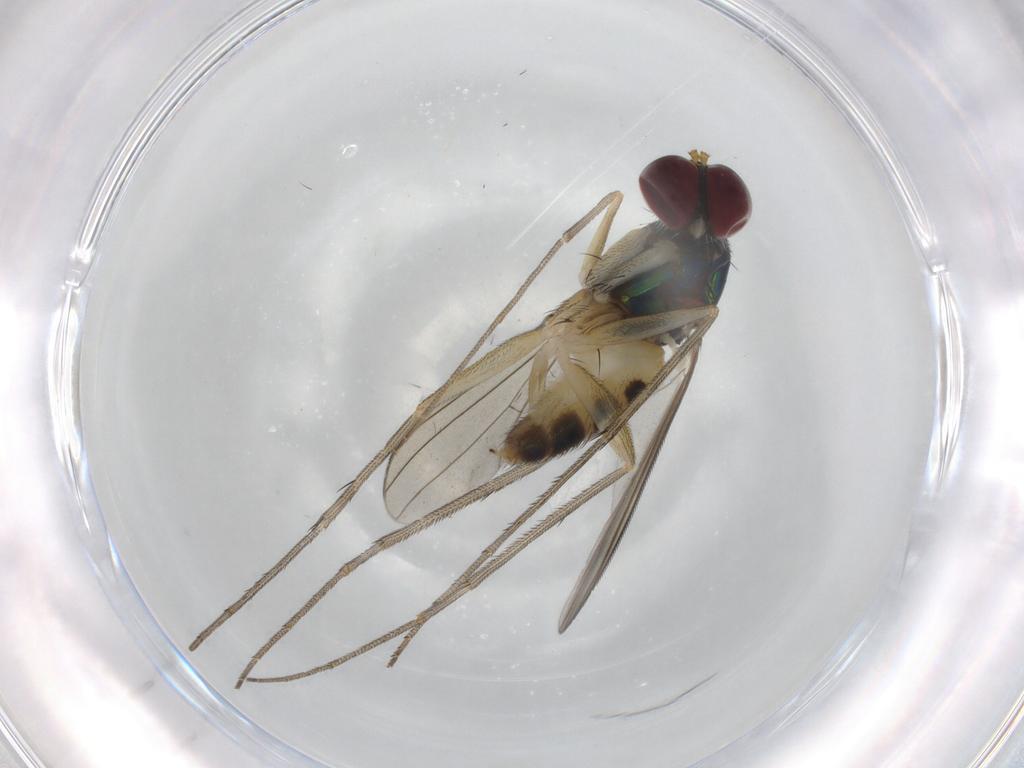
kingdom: Animalia
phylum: Arthropoda
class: Insecta
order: Diptera
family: Dolichopodidae
